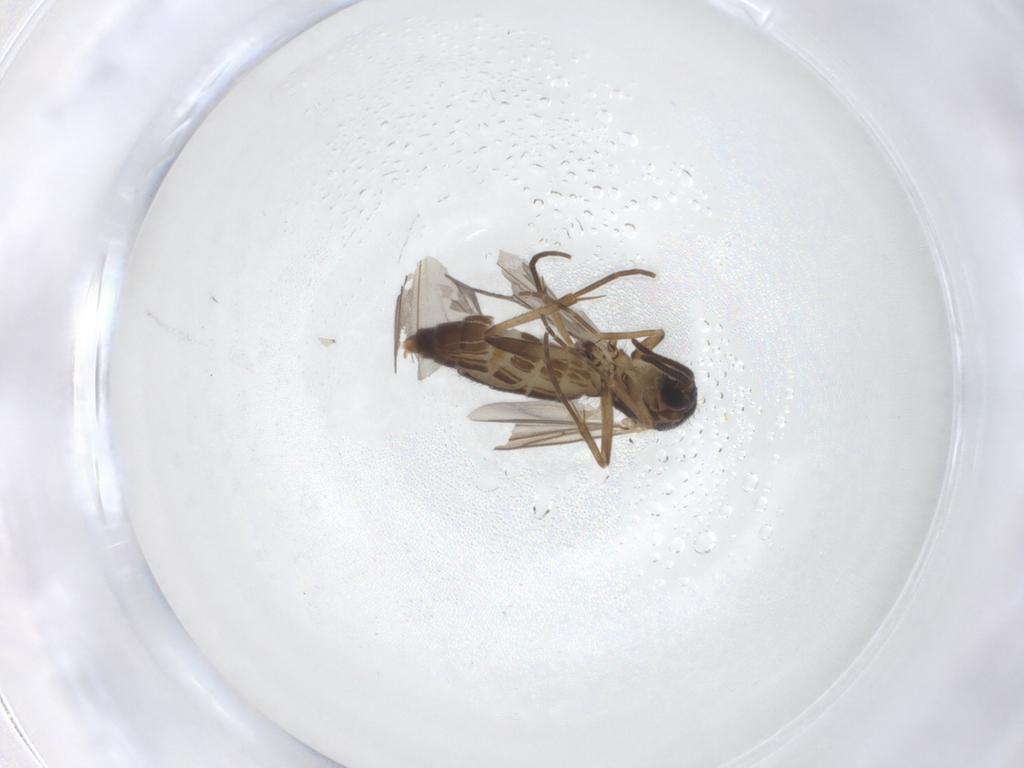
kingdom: Animalia
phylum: Arthropoda
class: Insecta
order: Diptera
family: Mycetophilidae
